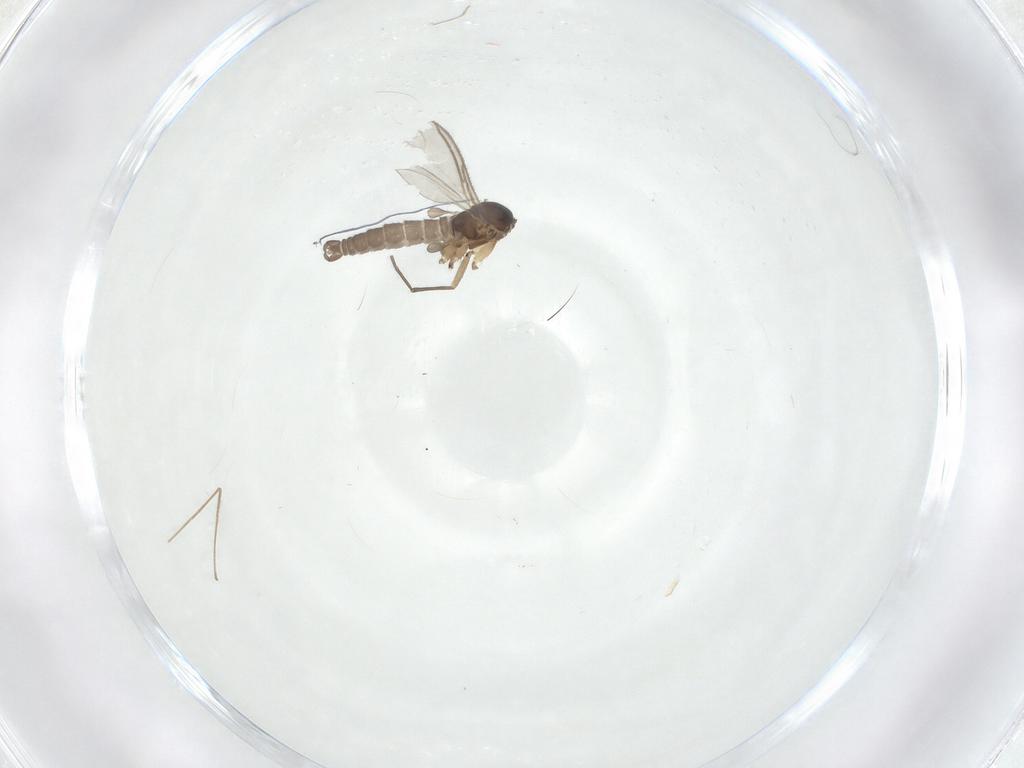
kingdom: Animalia
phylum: Arthropoda
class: Insecta
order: Diptera
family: Sciaridae
